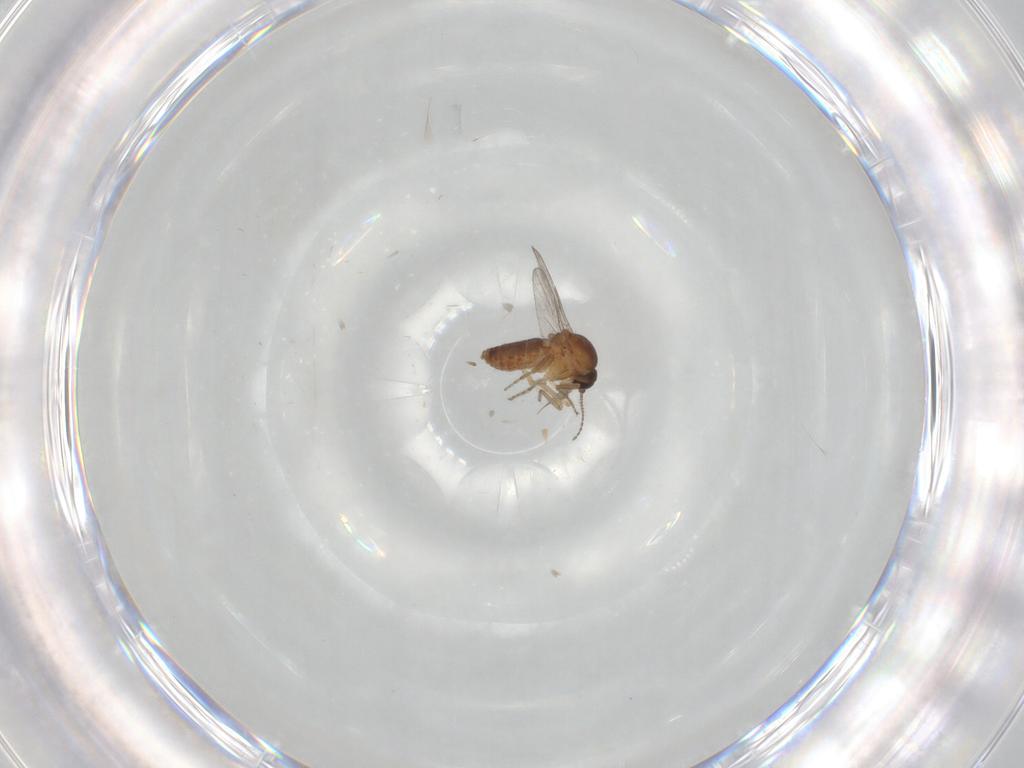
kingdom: Animalia
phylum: Arthropoda
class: Insecta
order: Diptera
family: Ceratopogonidae
